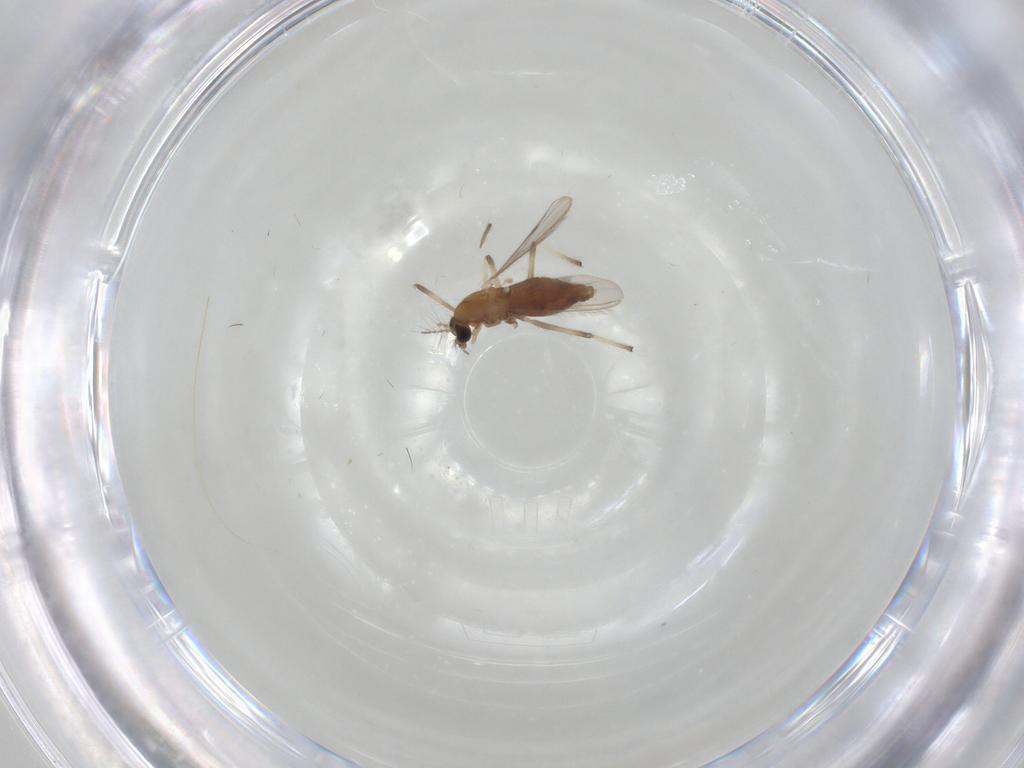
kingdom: Animalia
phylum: Arthropoda
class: Insecta
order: Diptera
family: Chironomidae
